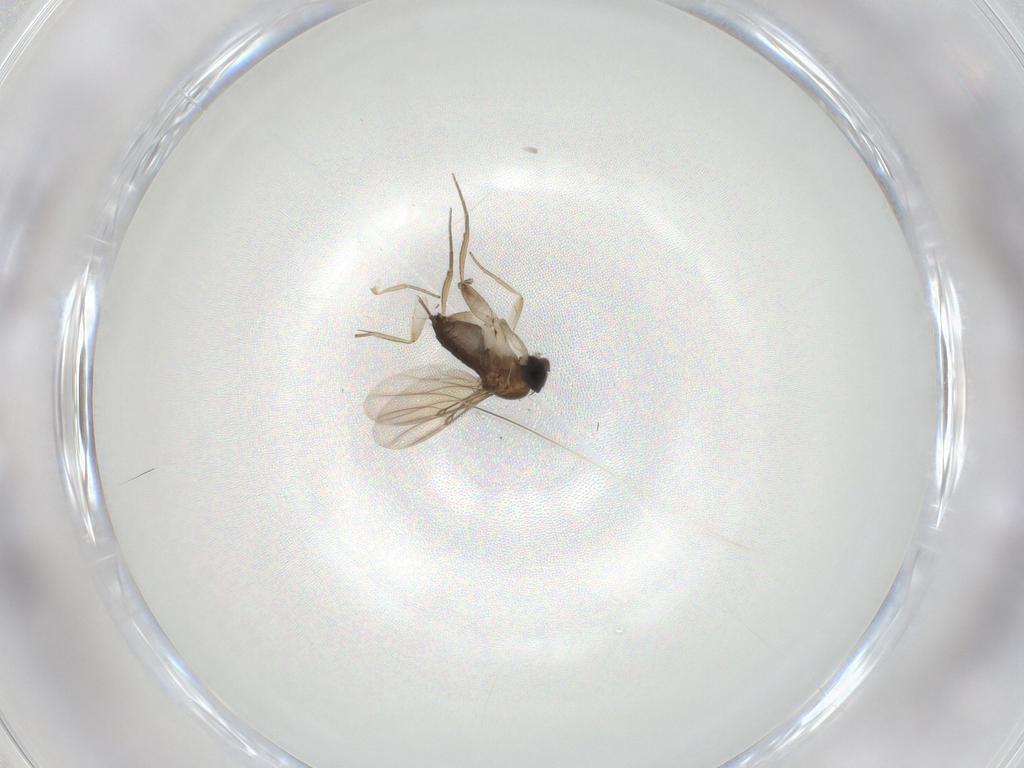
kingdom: Animalia
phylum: Arthropoda
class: Insecta
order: Diptera
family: Phoridae
